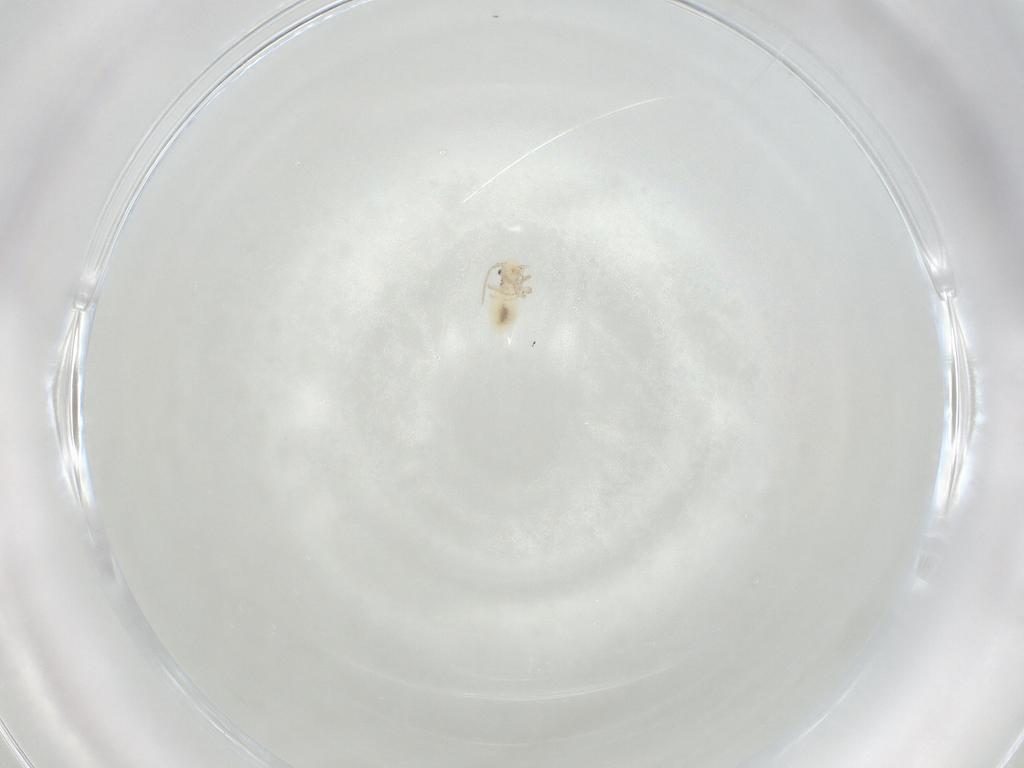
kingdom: Animalia
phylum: Arthropoda
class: Insecta
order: Psocodea
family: Caeciliusidae
